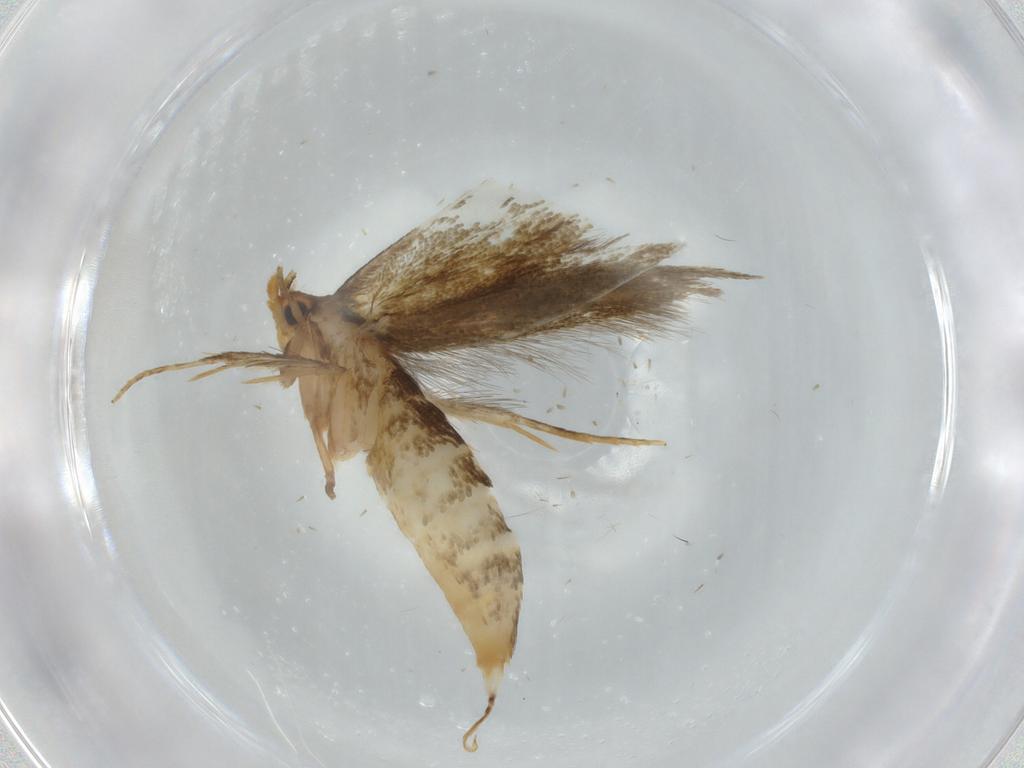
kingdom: Animalia
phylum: Arthropoda
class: Insecta
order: Lepidoptera
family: Tineidae
